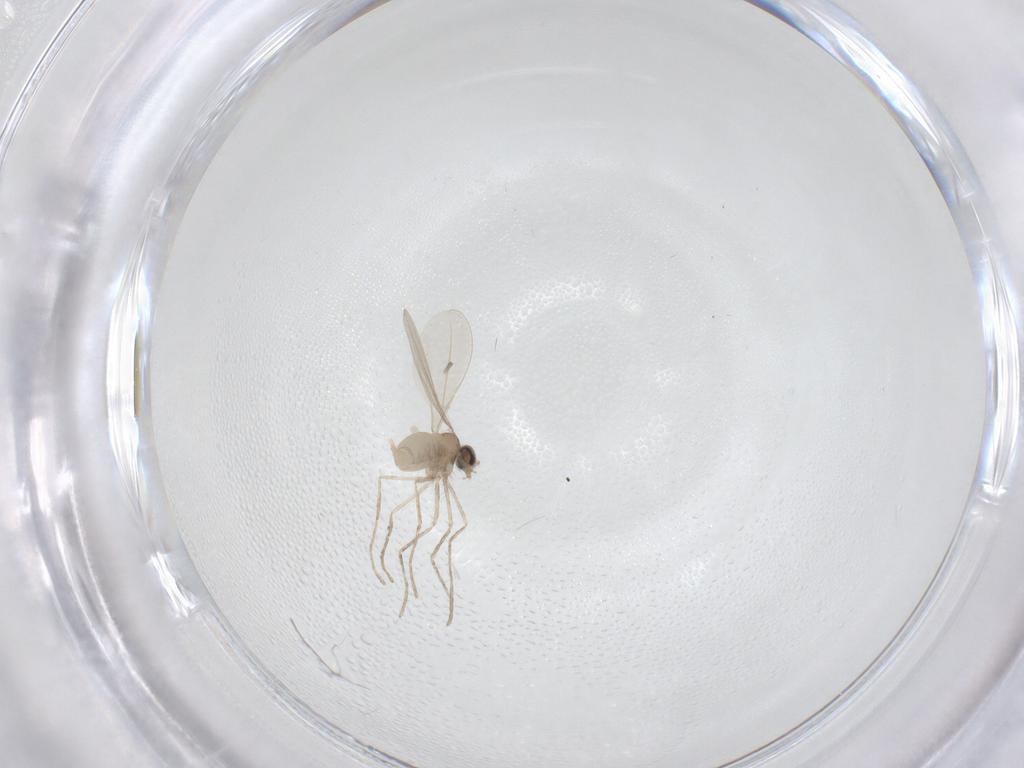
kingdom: Animalia
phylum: Arthropoda
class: Insecta
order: Diptera
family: Cecidomyiidae
